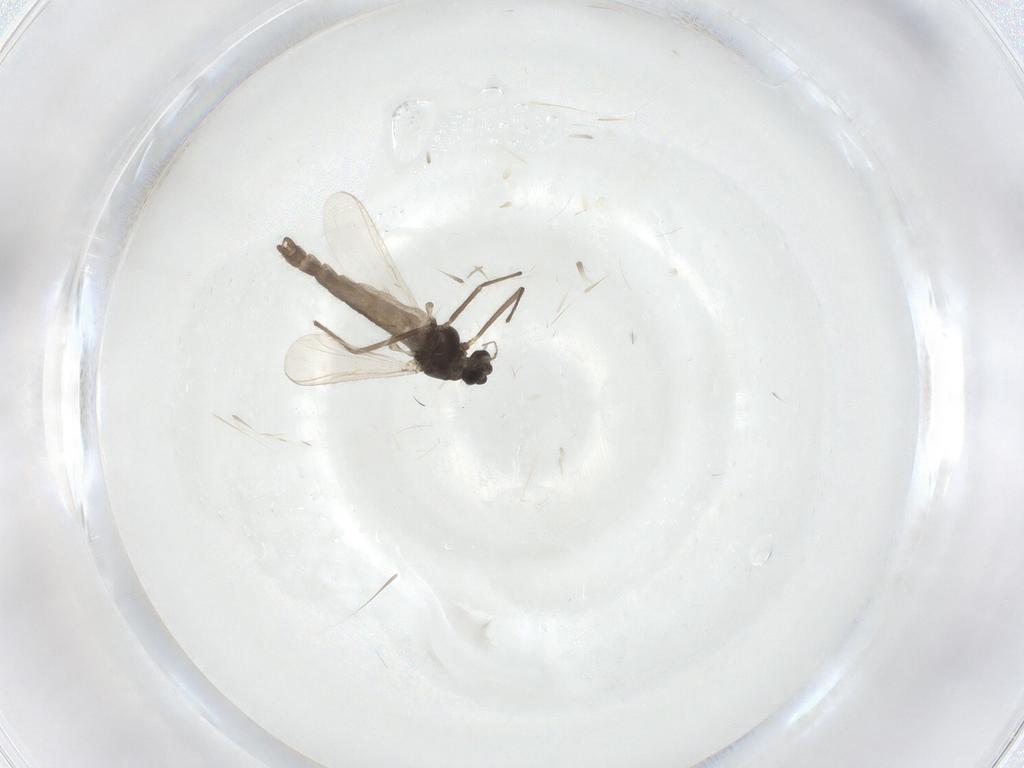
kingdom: Animalia
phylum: Arthropoda
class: Insecta
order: Diptera
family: Chironomidae
